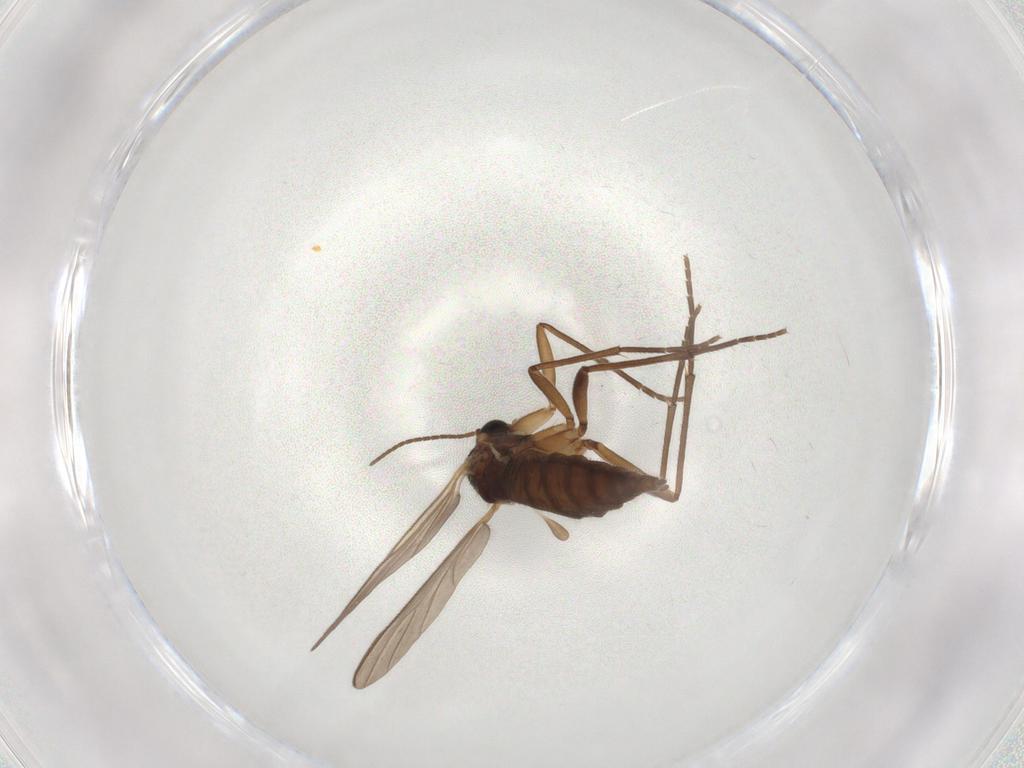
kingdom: Animalia
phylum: Arthropoda
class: Insecta
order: Diptera
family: Sciaridae
